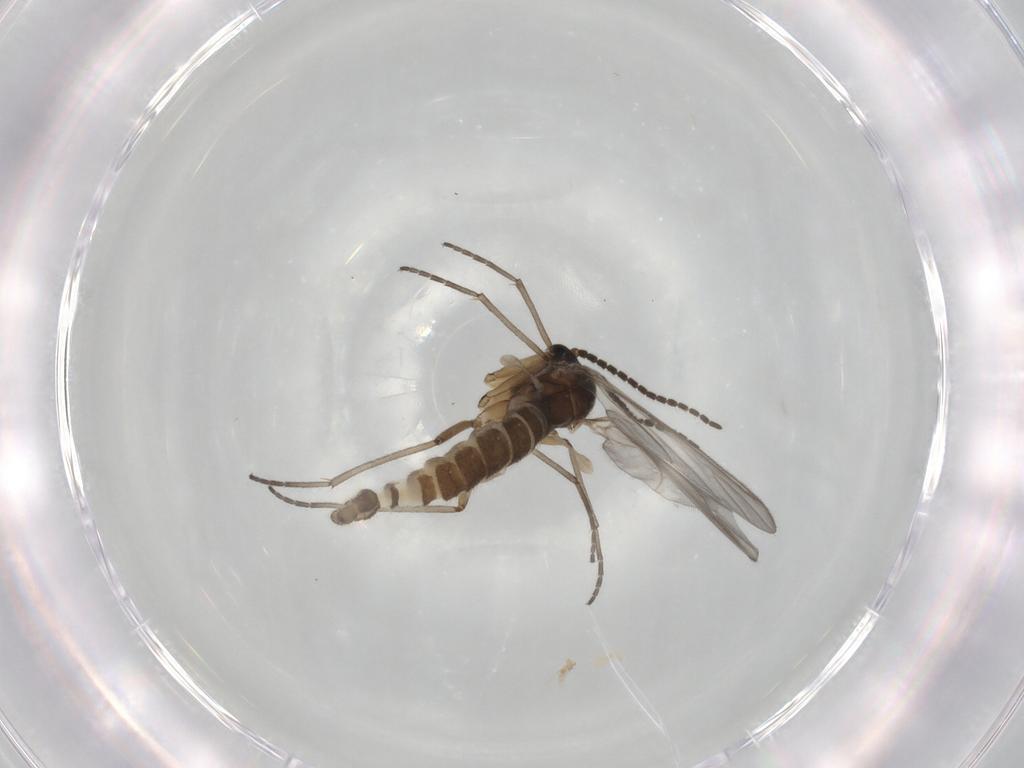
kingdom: Animalia
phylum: Arthropoda
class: Insecta
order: Diptera
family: Sciaridae
